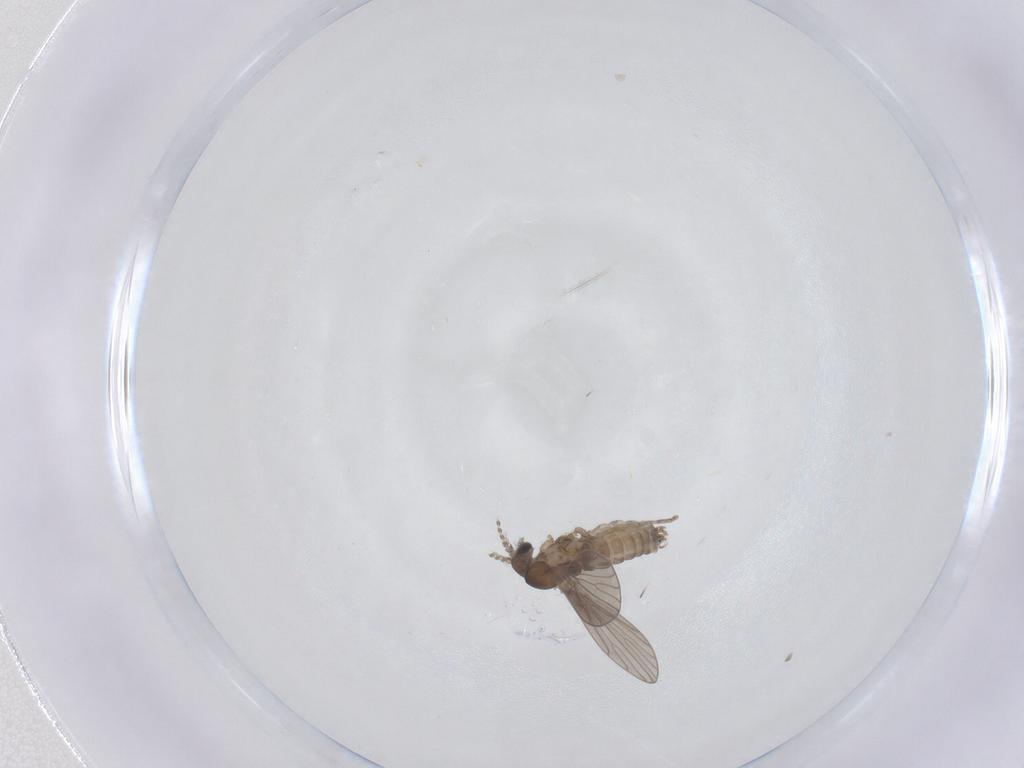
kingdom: Animalia
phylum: Arthropoda
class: Insecta
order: Diptera
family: Cecidomyiidae
